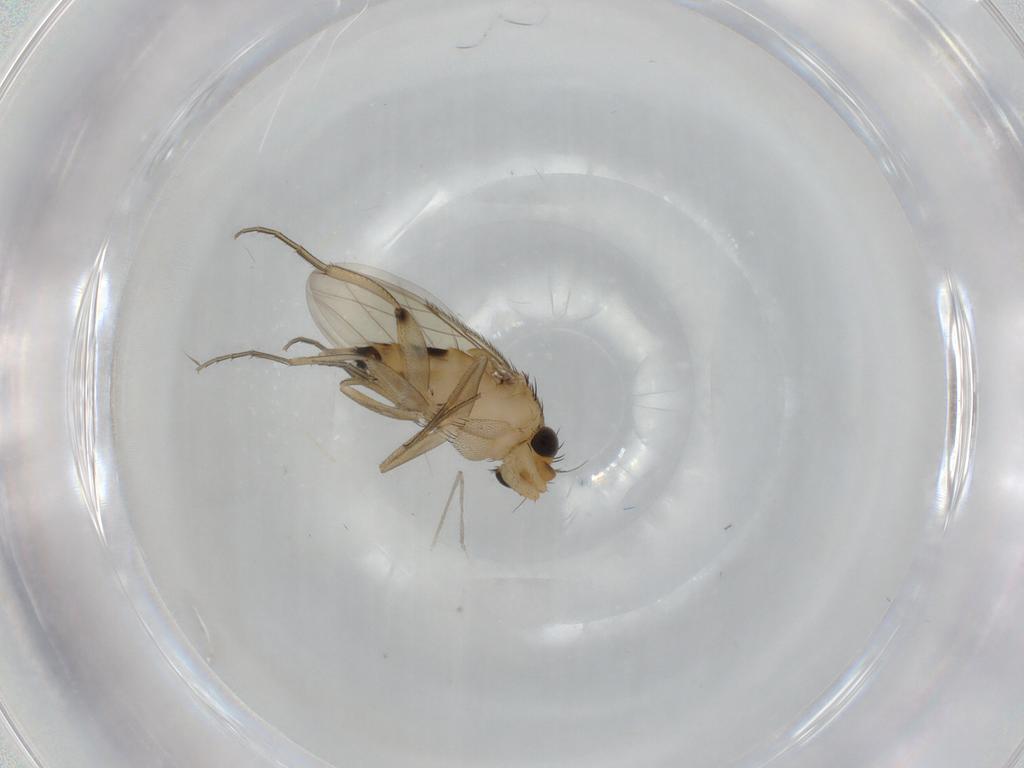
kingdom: Animalia
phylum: Arthropoda
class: Insecta
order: Diptera
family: Phoridae
